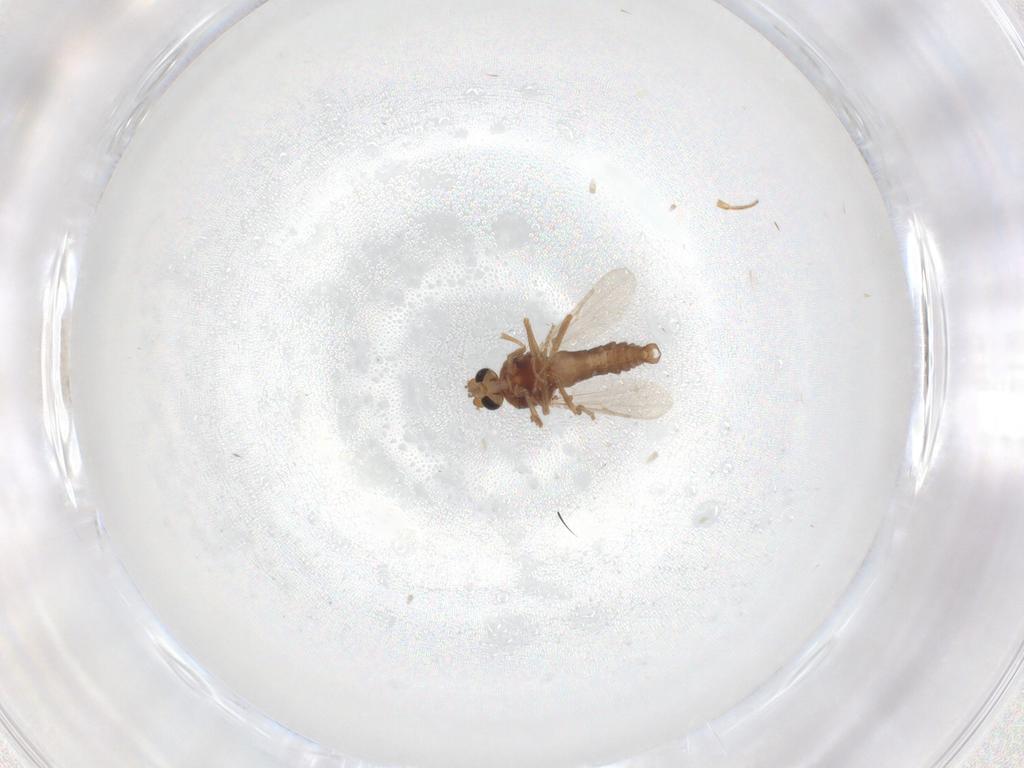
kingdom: Animalia
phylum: Arthropoda
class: Insecta
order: Diptera
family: Ceratopogonidae
